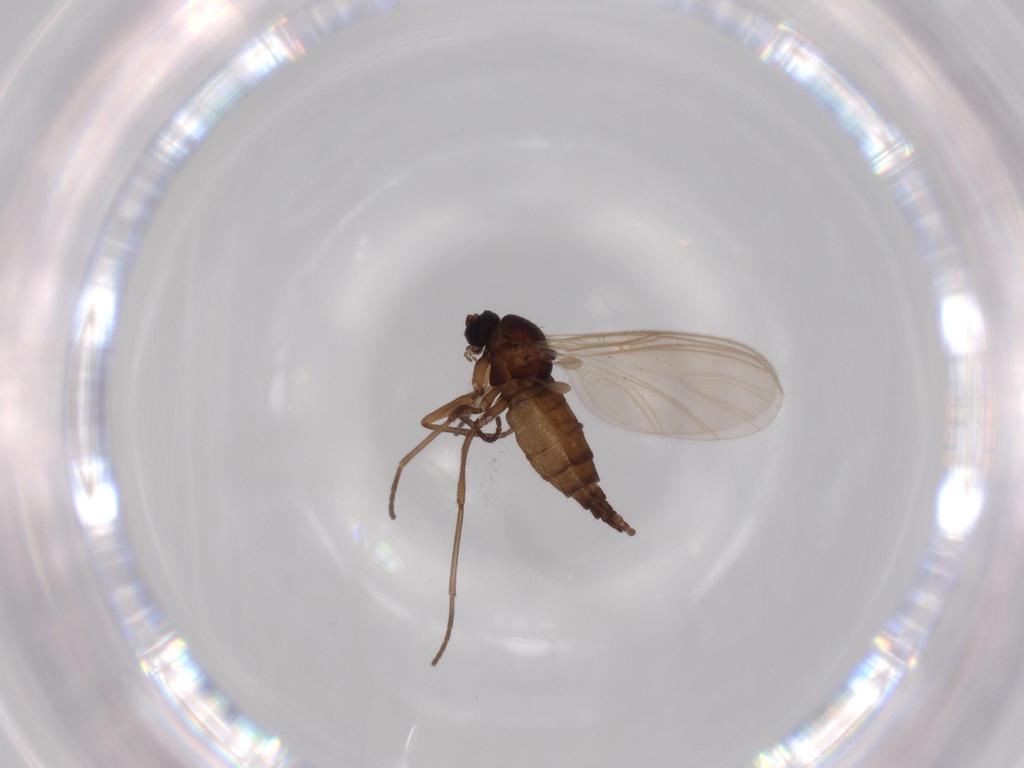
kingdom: Animalia
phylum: Arthropoda
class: Insecta
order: Diptera
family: Sciaridae
